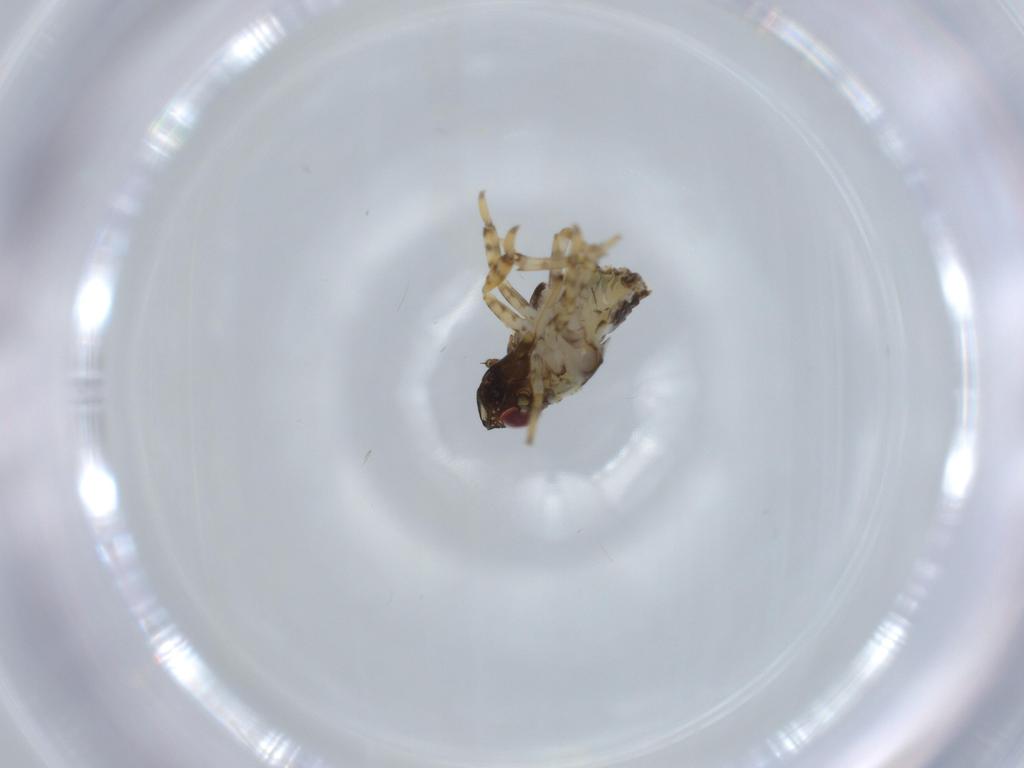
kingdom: Animalia
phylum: Arthropoda
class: Insecta
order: Hemiptera
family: Issidae
